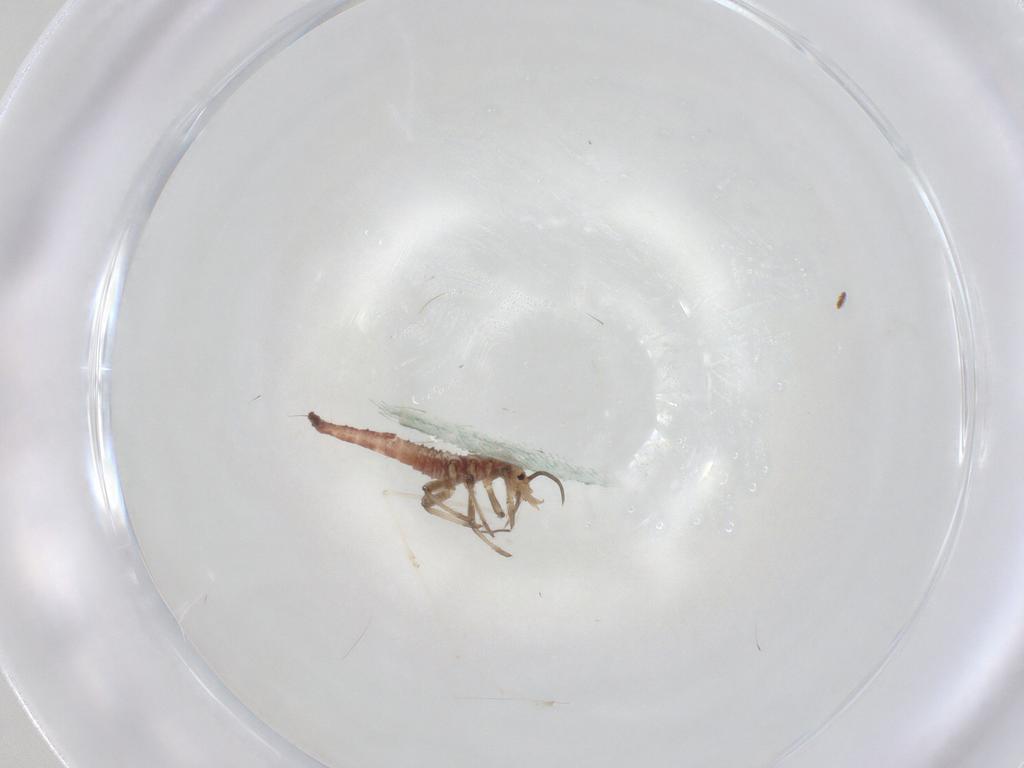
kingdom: Animalia
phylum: Arthropoda
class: Insecta
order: Neuroptera
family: Hemerobiidae
